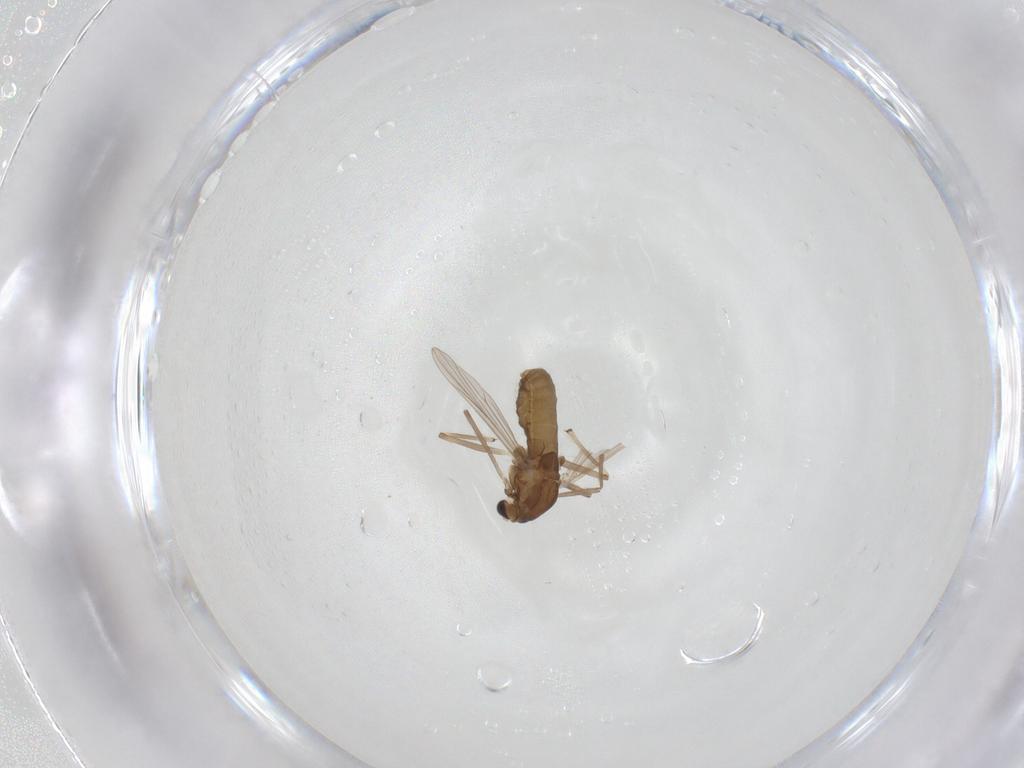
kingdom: Animalia
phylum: Arthropoda
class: Insecta
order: Diptera
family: Chironomidae
